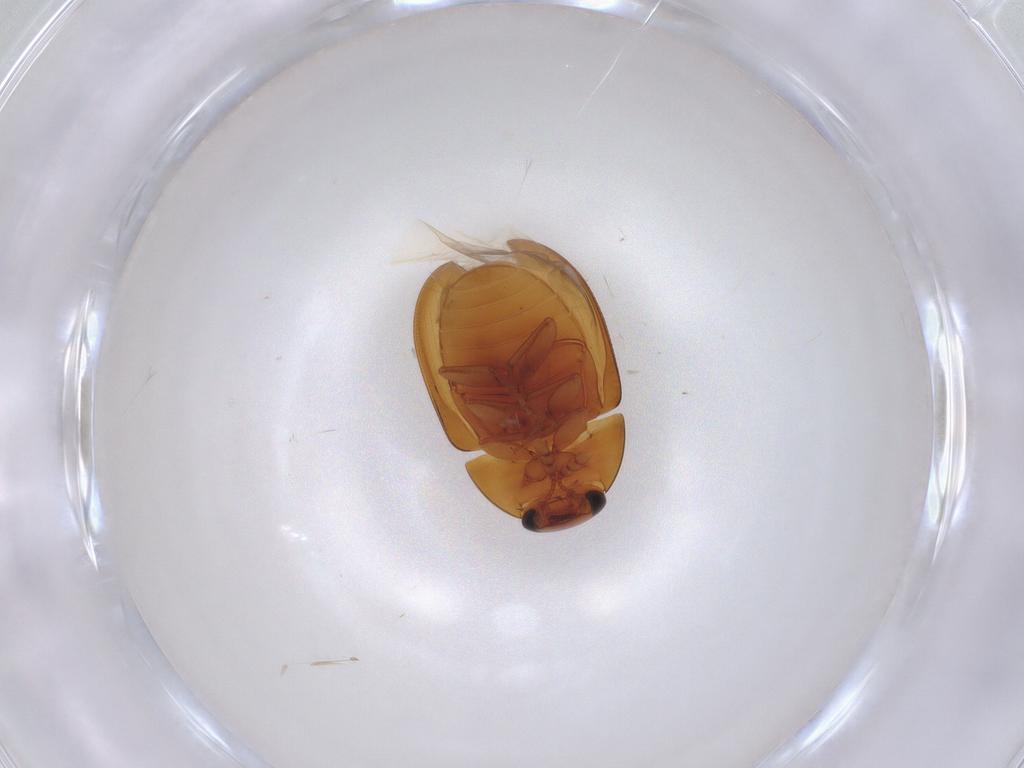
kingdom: Animalia
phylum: Arthropoda
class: Insecta
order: Coleoptera
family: Phalacridae
